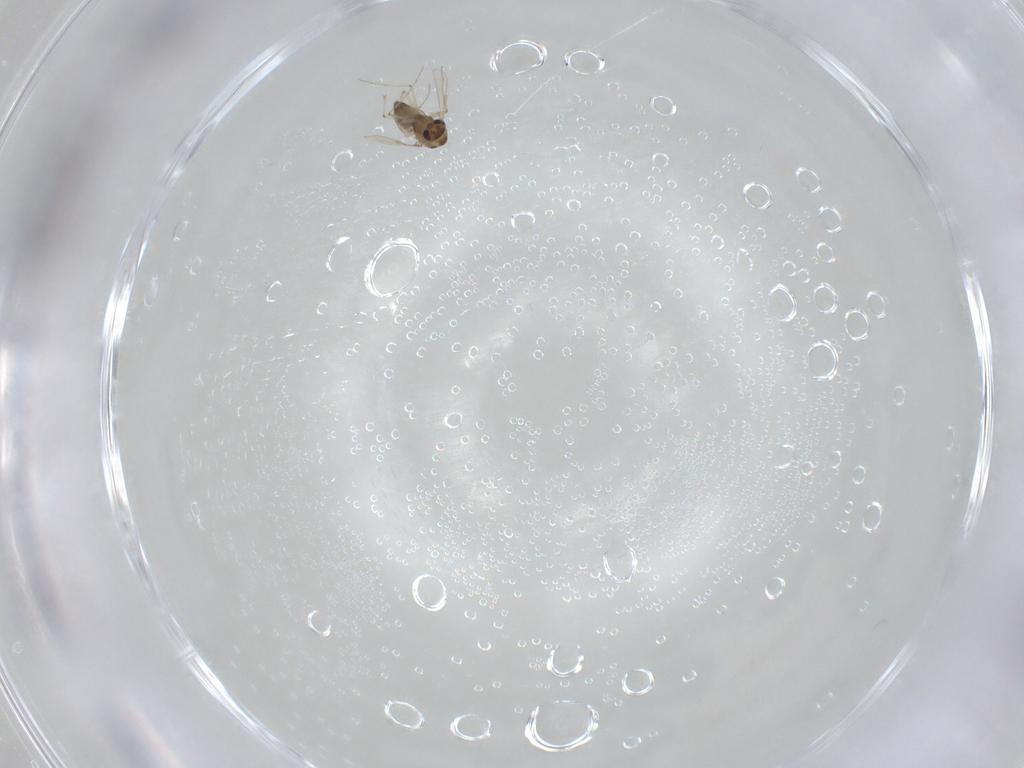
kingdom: Animalia
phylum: Arthropoda
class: Insecta
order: Diptera
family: Chironomidae
